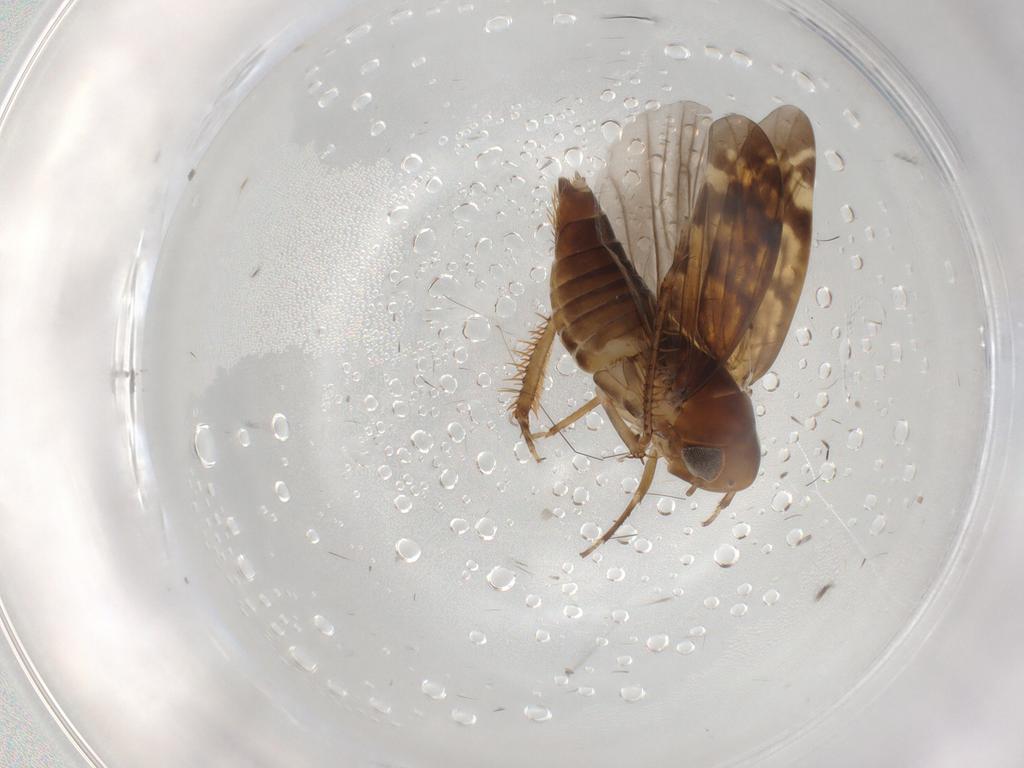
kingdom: Animalia
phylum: Arthropoda
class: Insecta
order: Hemiptera
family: Cicadellidae
